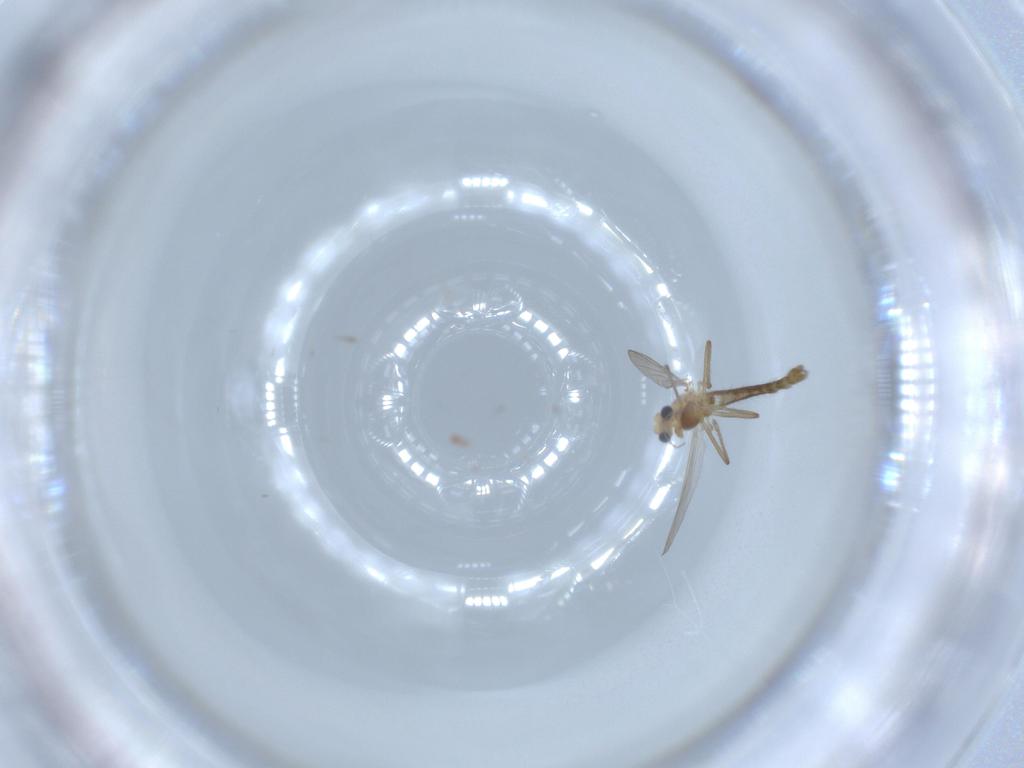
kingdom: Animalia
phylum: Arthropoda
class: Insecta
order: Diptera
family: Chironomidae
